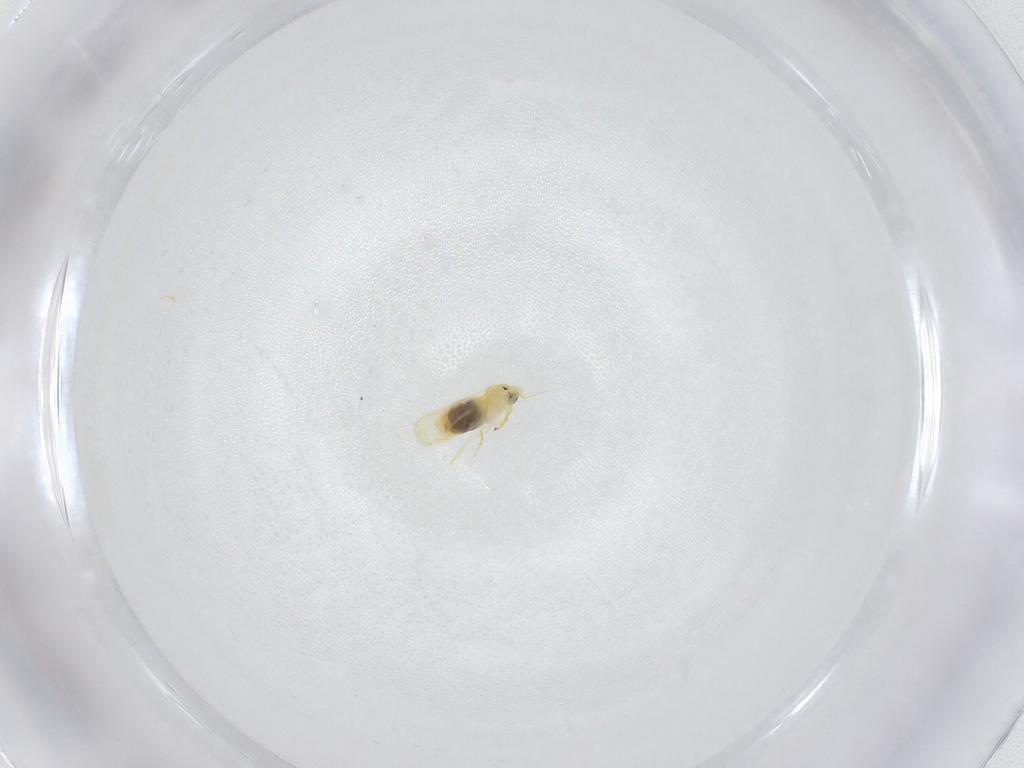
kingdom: Animalia
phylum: Arthropoda
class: Insecta
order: Hemiptera
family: Aleyrodidae
